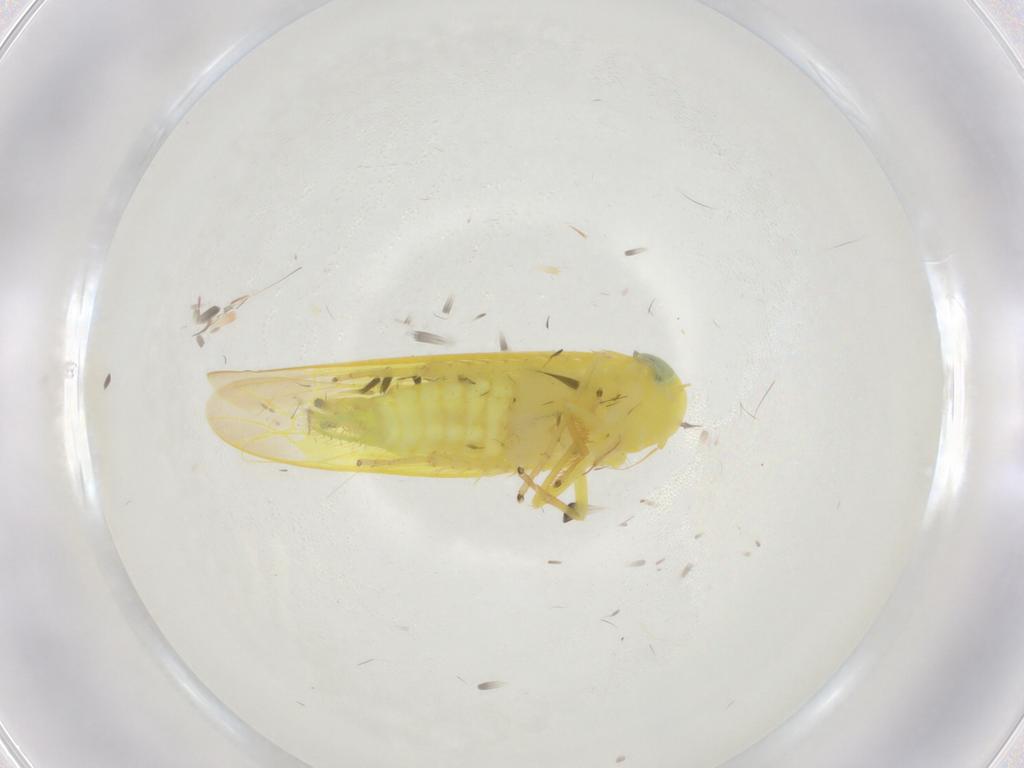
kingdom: Animalia
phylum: Arthropoda
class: Insecta
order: Hemiptera
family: Cicadellidae
